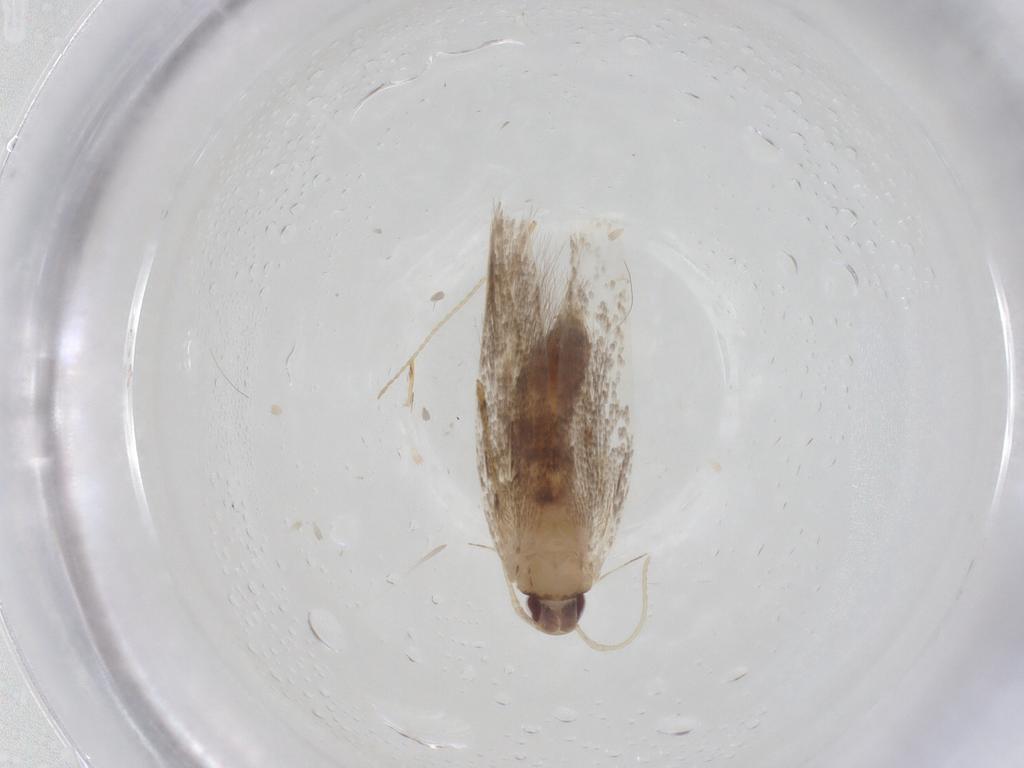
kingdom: Animalia
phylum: Arthropoda
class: Insecta
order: Lepidoptera
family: Cosmopterigidae
